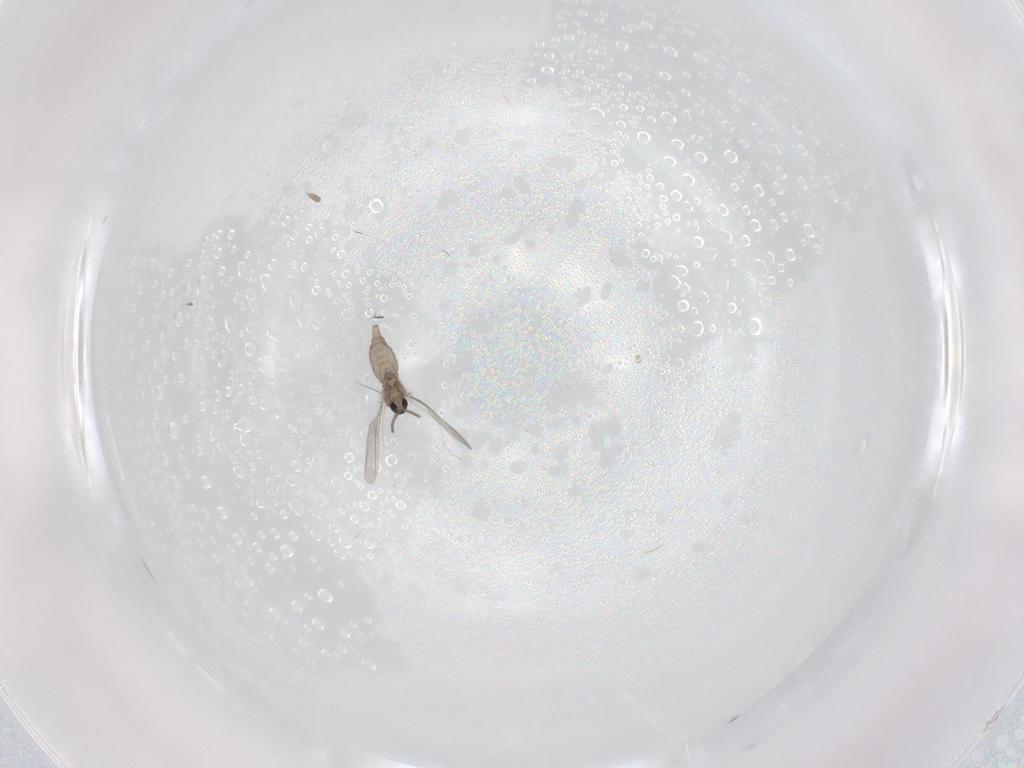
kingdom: Animalia
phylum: Arthropoda
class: Insecta
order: Diptera
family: Cecidomyiidae
